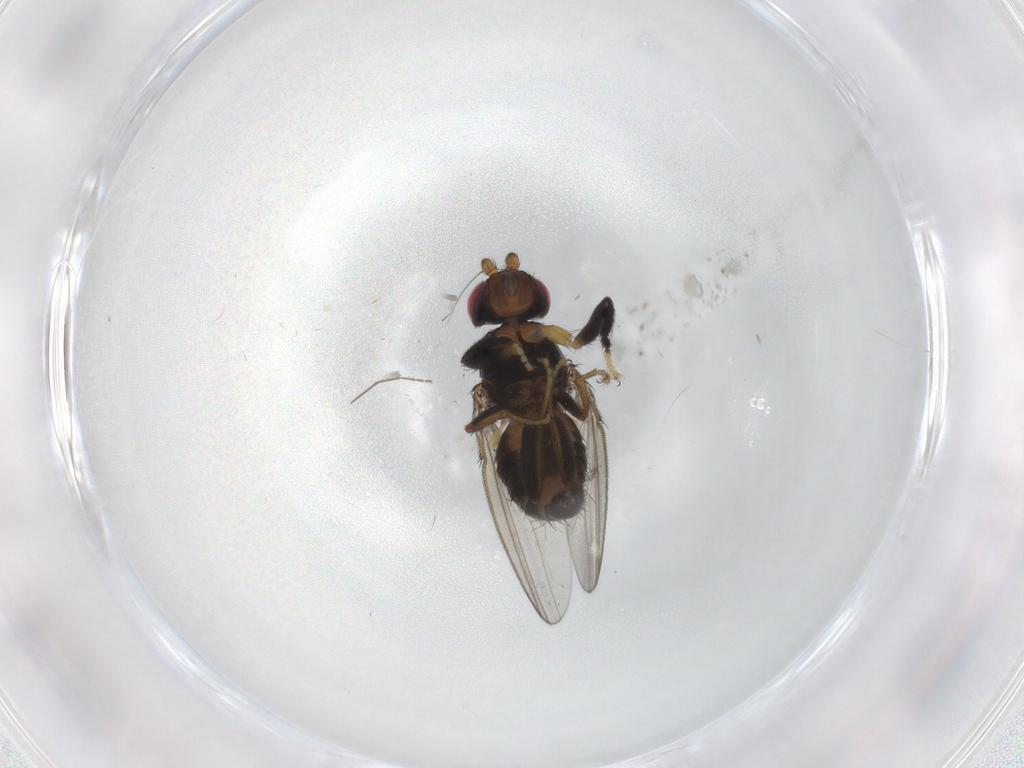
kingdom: Animalia
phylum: Arthropoda
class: Insecta
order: Diptera
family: Cypselosomatidae
